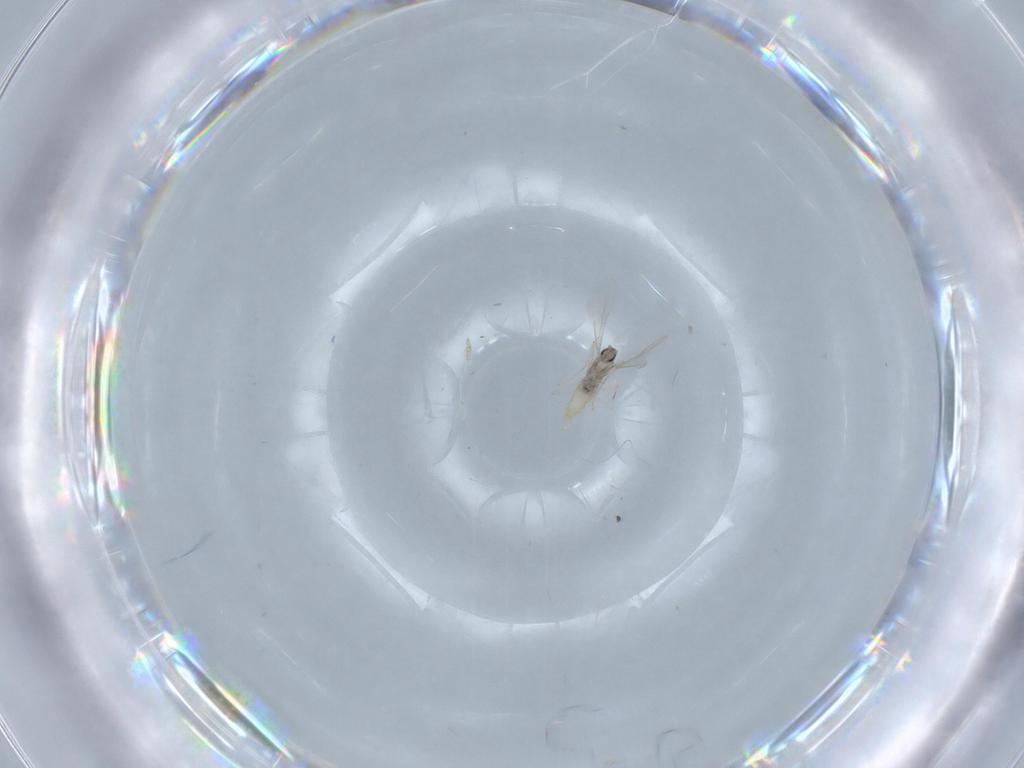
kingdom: Animalia
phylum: Arthropoda
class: Insecta
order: Diptera
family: Cecidomyiidae
